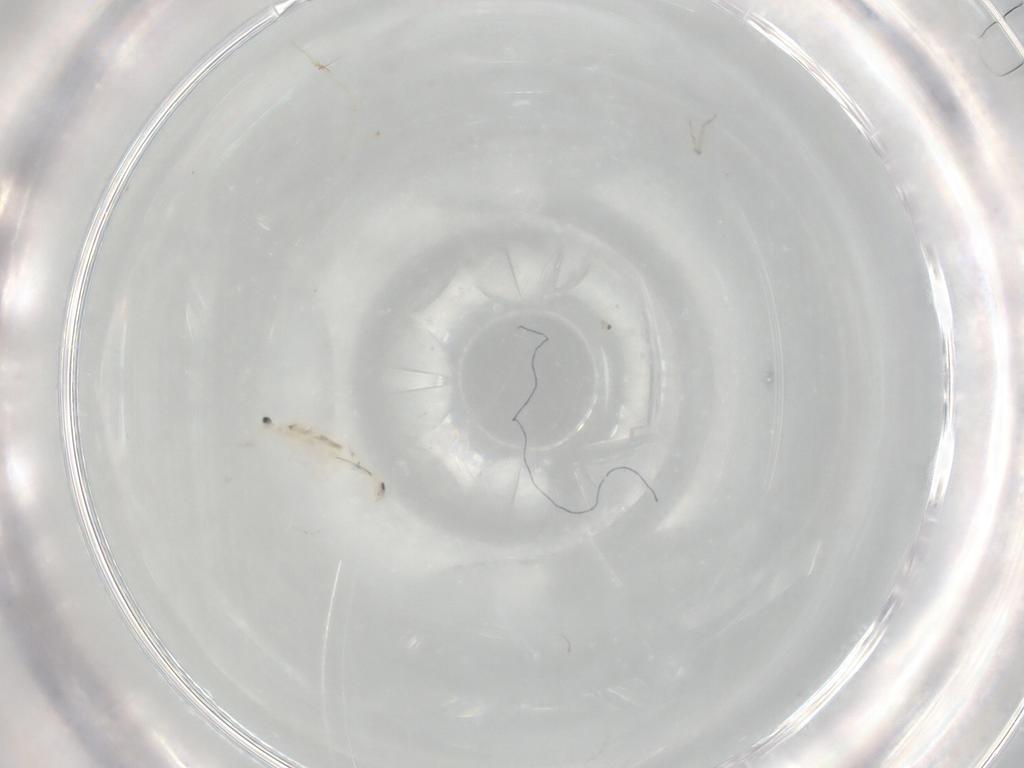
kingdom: Animalia
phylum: Arthropoda
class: Collembola
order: Entomobryomorpha
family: Entomobryidae
